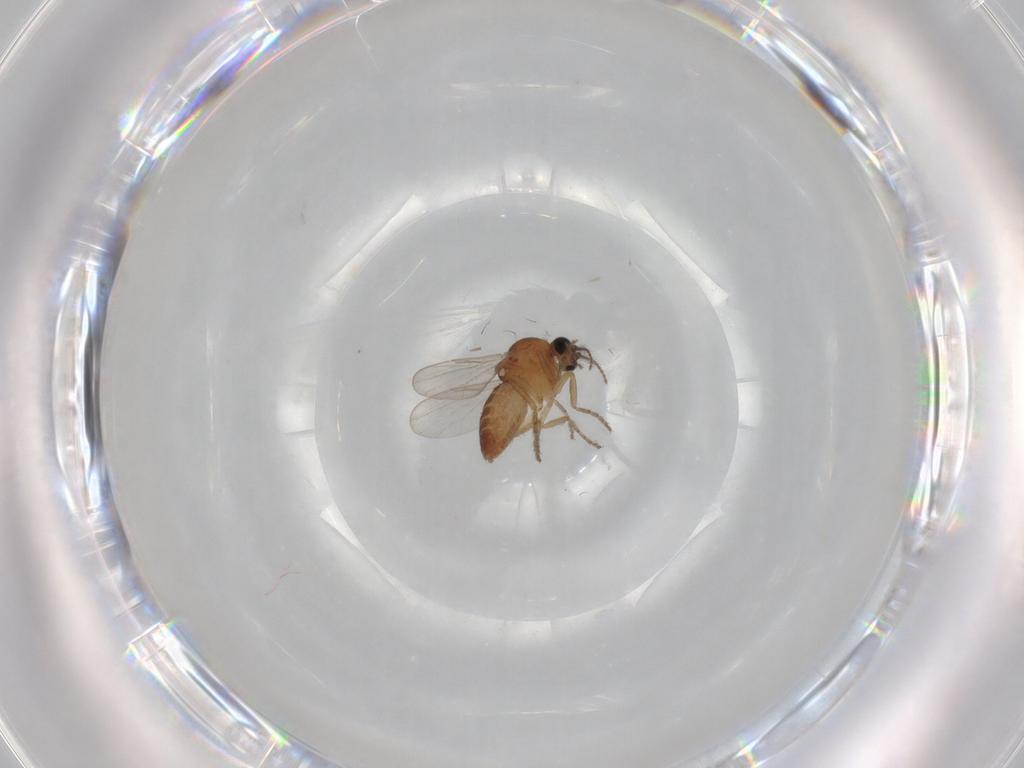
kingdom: Animalia
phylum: Arthropoda
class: Insecta
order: Diptera
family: Ceratopogonidae
